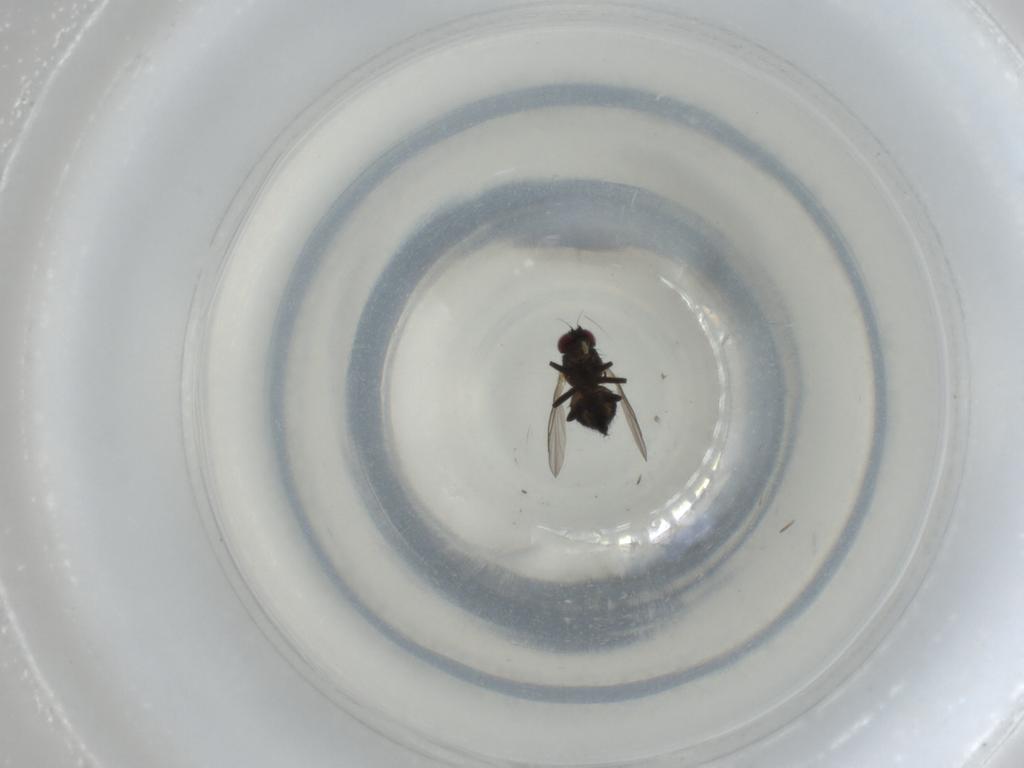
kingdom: Animalia
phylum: Arthropoda
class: Insecta
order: Diptera
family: Agromyzidae
